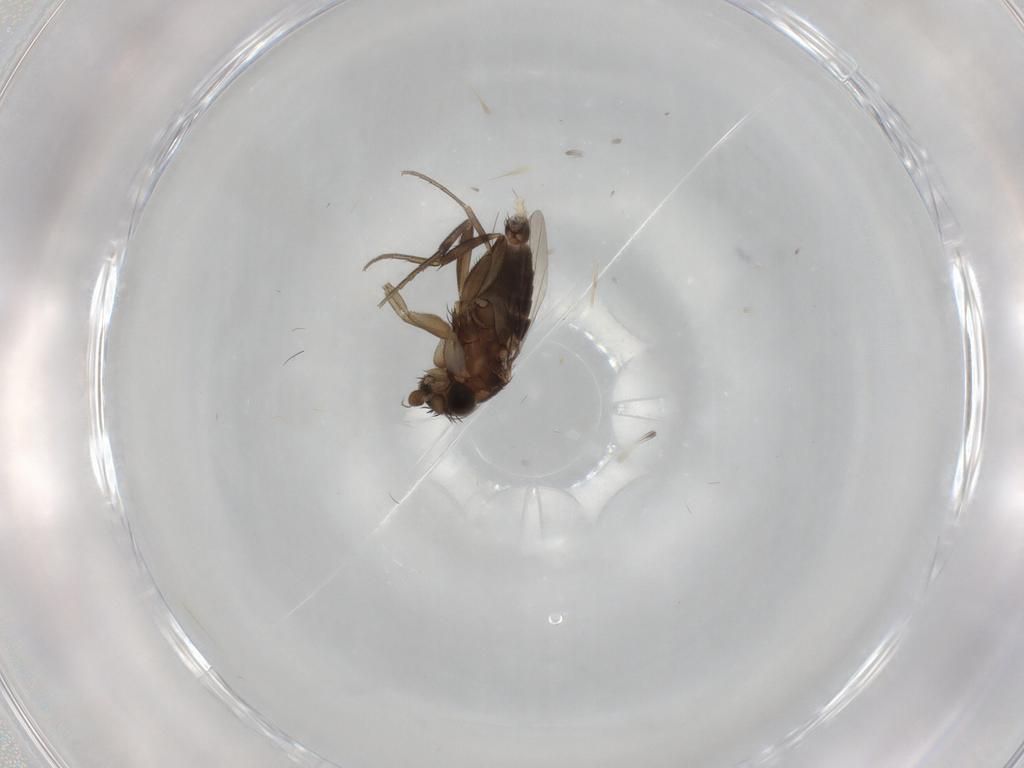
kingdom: Animalia
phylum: Arthropoda
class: Insecta
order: Diptera
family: Phoridae
